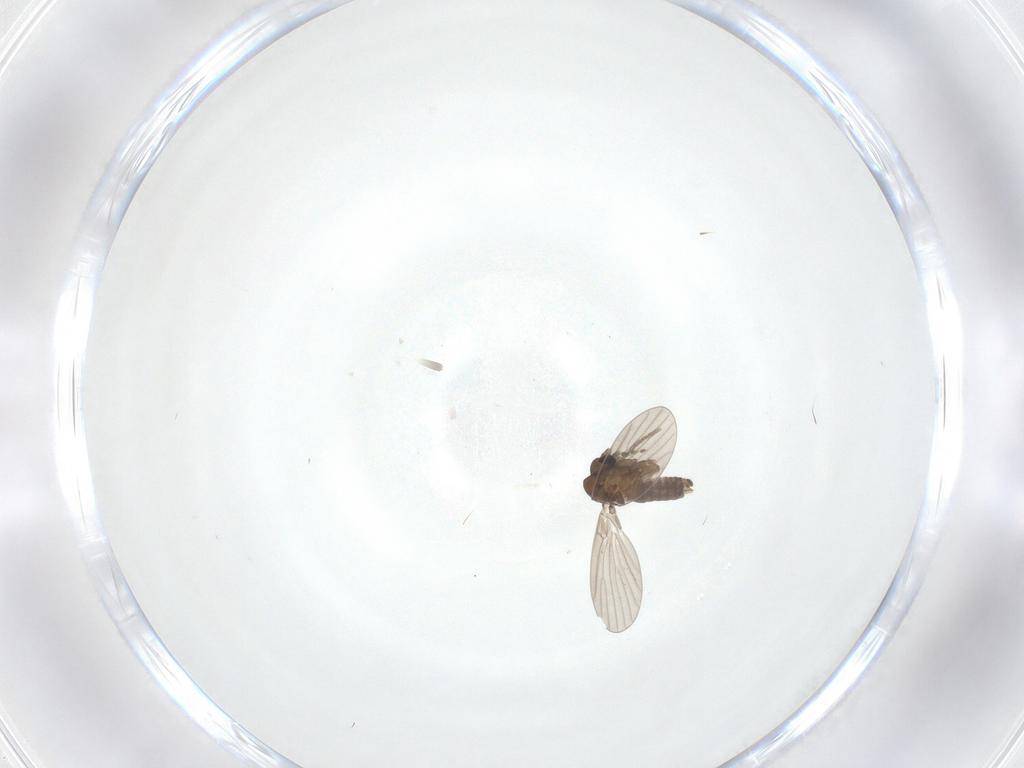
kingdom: Animalia
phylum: Arthropoda
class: Insecta
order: Diptera
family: Psychodidae
